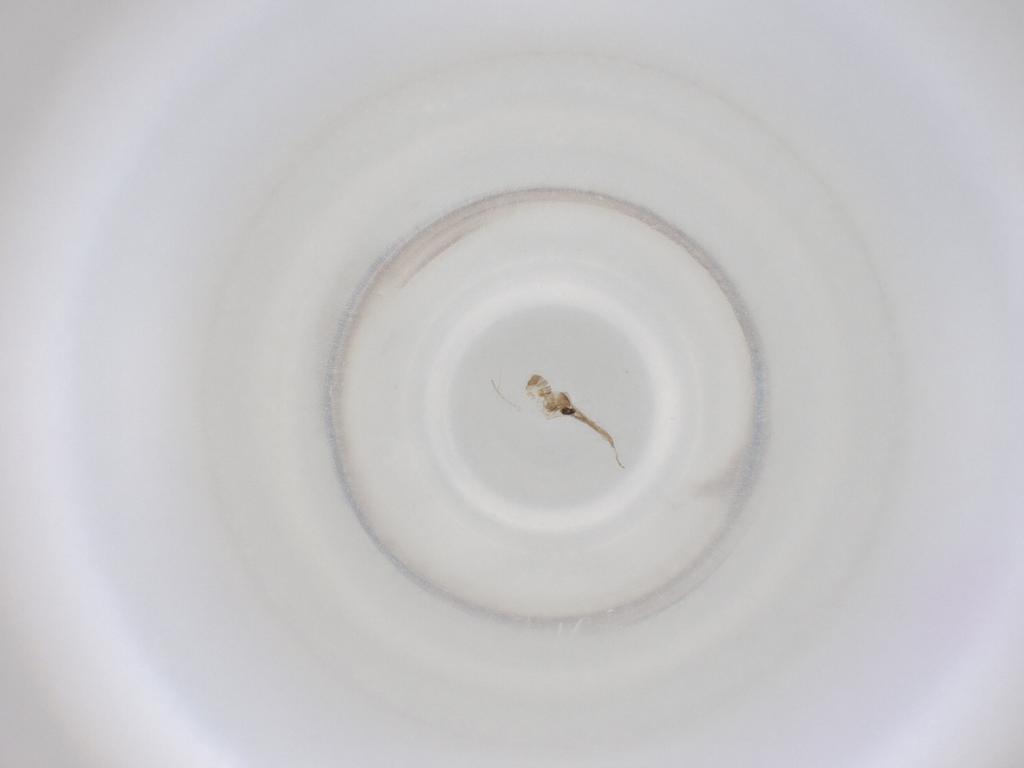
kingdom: Animalia
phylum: Arthropoda
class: Insecta
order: Diptera
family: Cecidomyiidae
